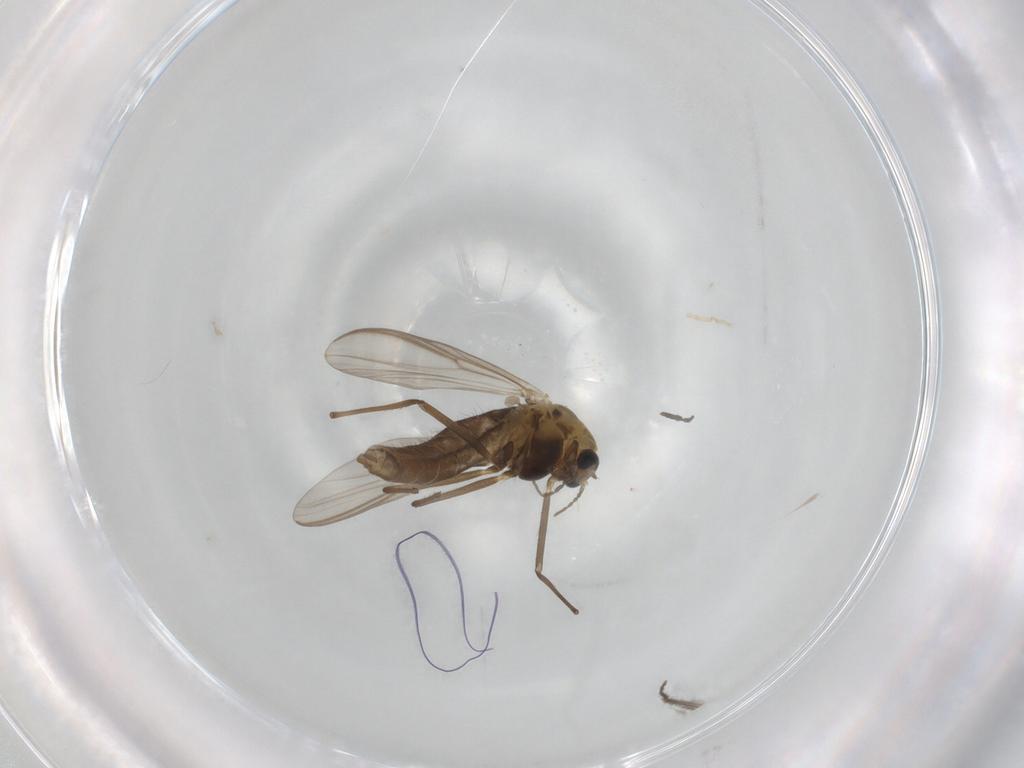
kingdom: Animalia
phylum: Arthropoda
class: Insecta
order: Diptera
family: Chironomidae
